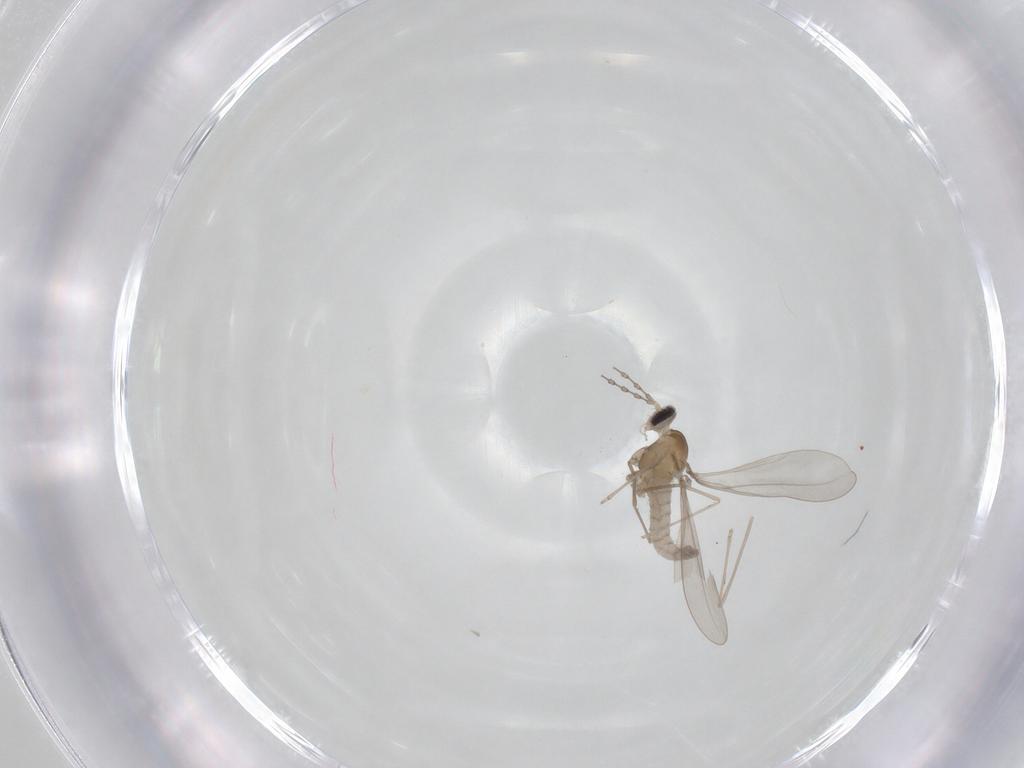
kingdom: Animalia
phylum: Arthropoda
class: Insecta
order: Diptera
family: Cecidomyiidae
